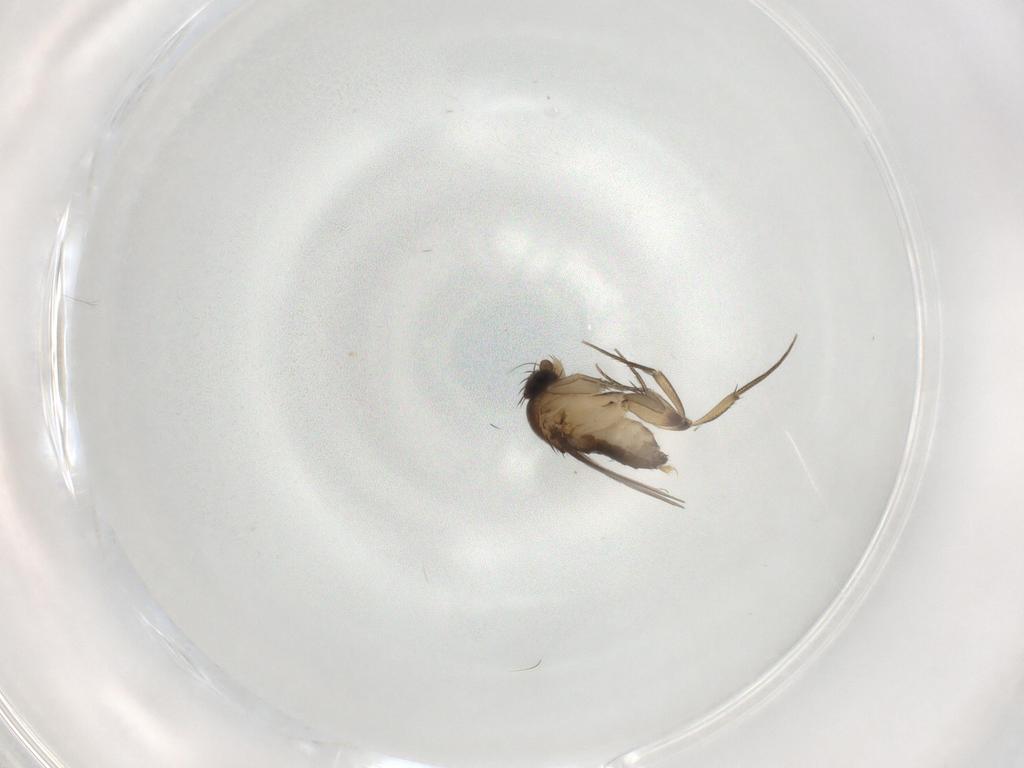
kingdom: Animalia
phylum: Arthropoda
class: Insecta
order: Diptera
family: Phoridae
